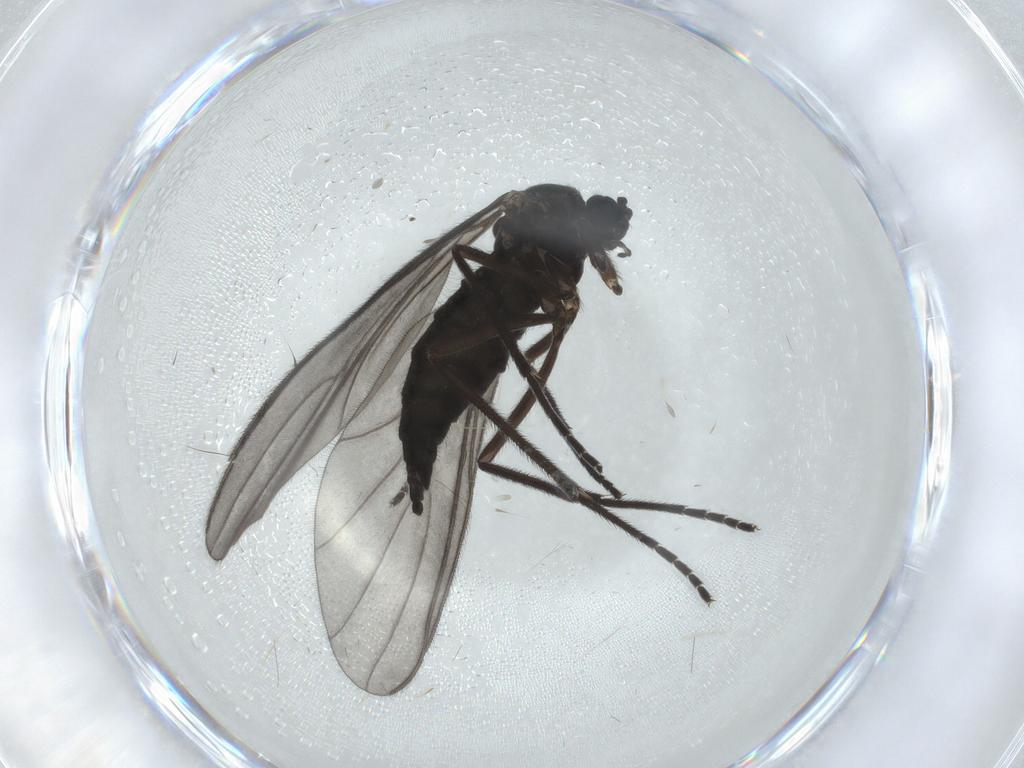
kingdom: Animalia
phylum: Arthropoda
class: Insecta
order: Diptera
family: Sciaridae
